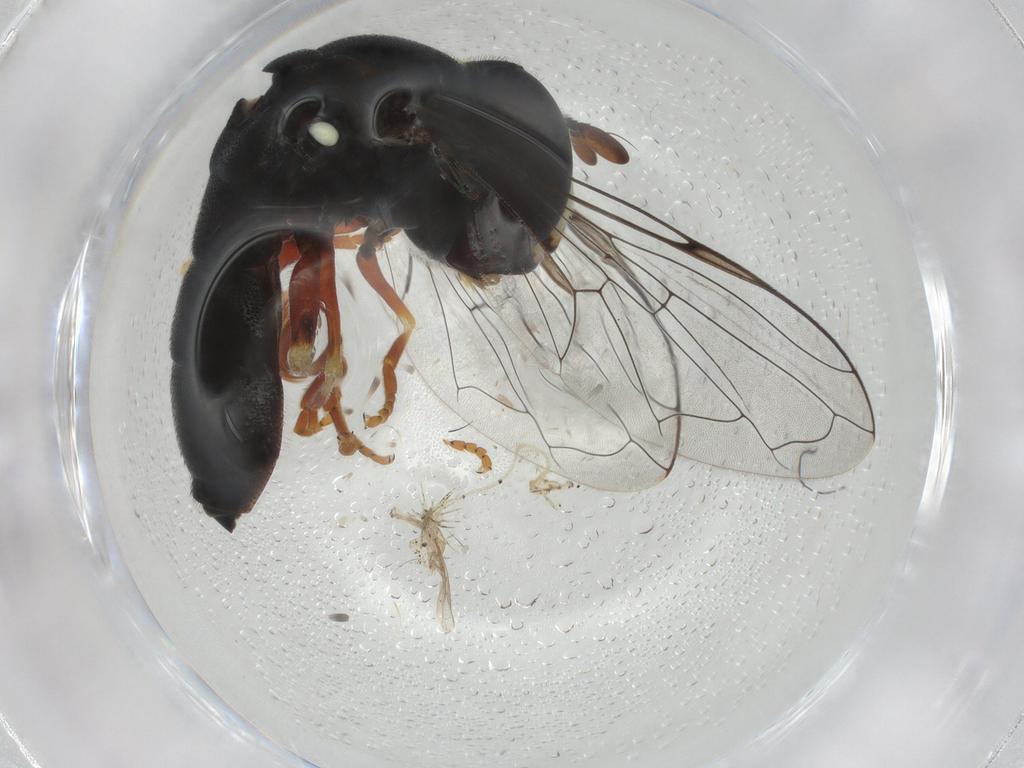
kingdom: Animalia
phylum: Arthropoda
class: Insecta
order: Diptera
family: Syrphidae
